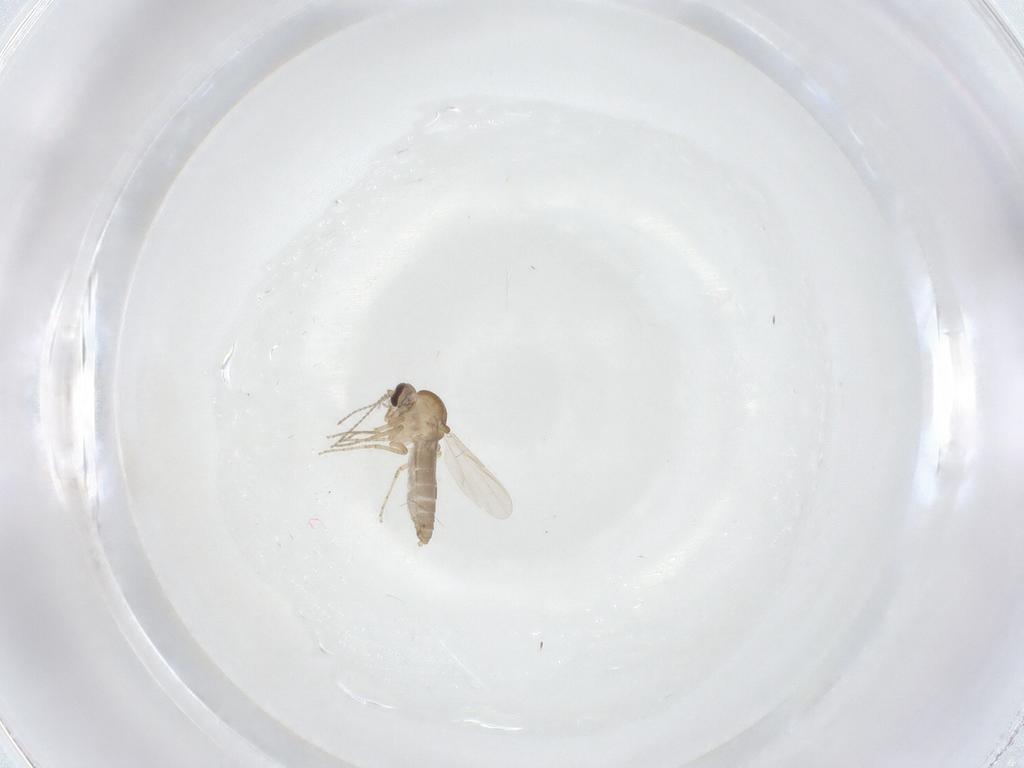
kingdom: Animalia
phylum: Arthropoda
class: Insecta
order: Diptera
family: Ceratopogonidae
